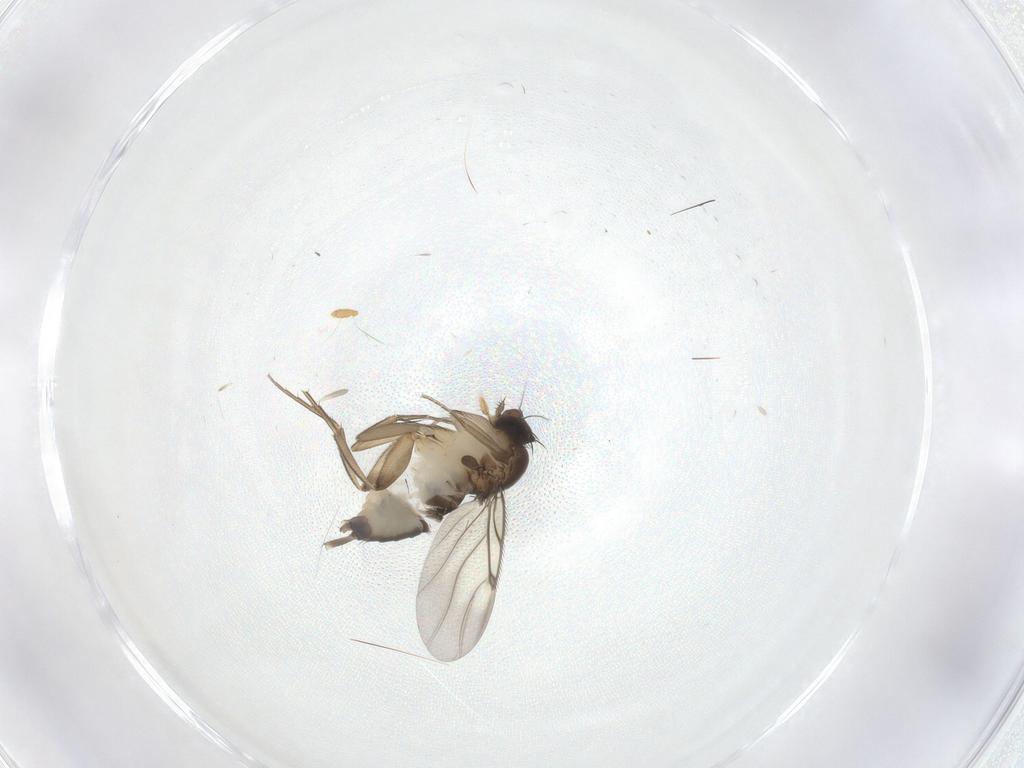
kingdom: Animalia
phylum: Arthropoda
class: Insecta
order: Diptera
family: Phoridae
